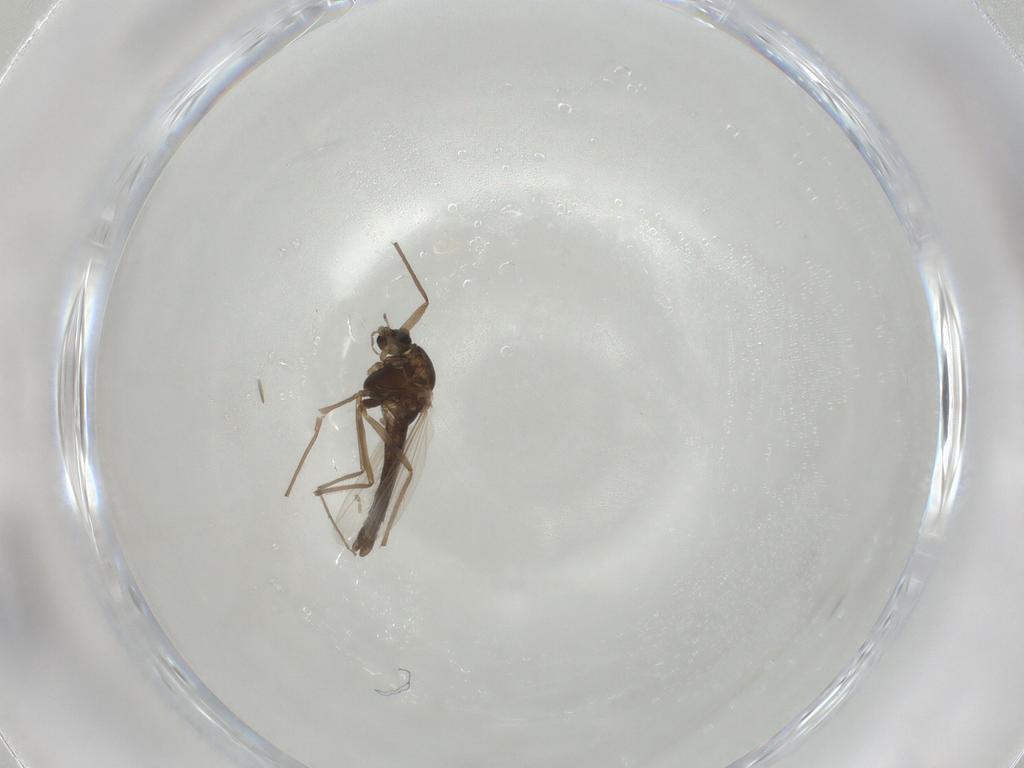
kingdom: Animalia
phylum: Arthropoda
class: Insecta
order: Diptera
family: Chironomidae
